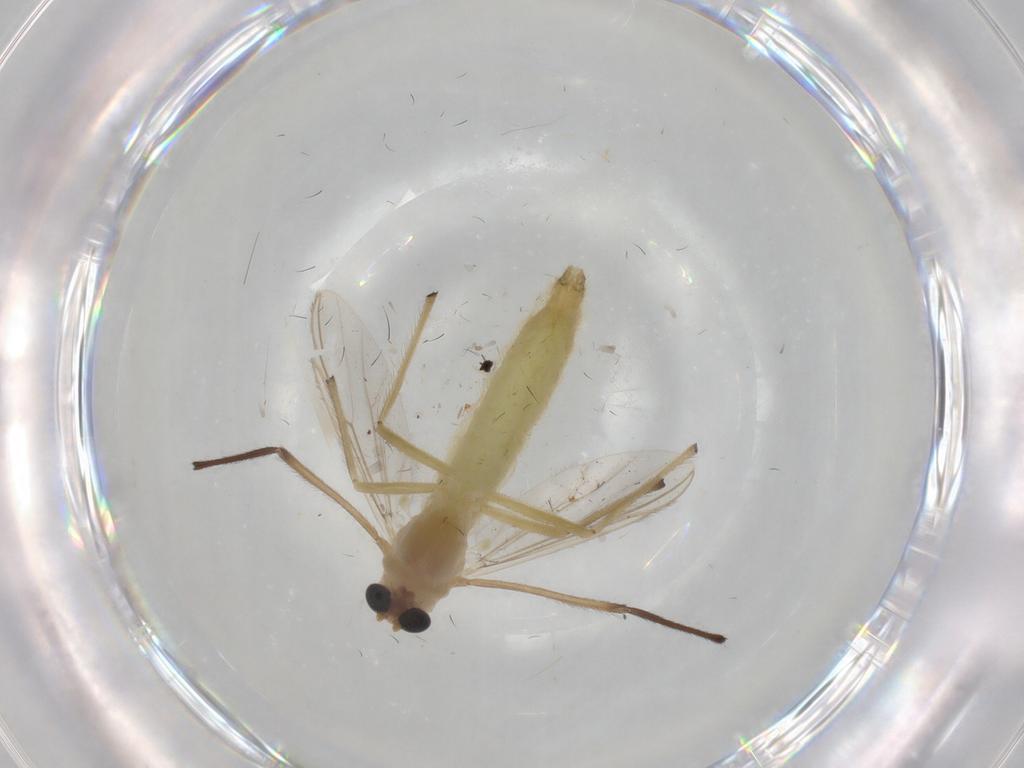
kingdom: Animalia
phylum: Arthropoda
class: Insecta
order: Diptera
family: Chironomidae
